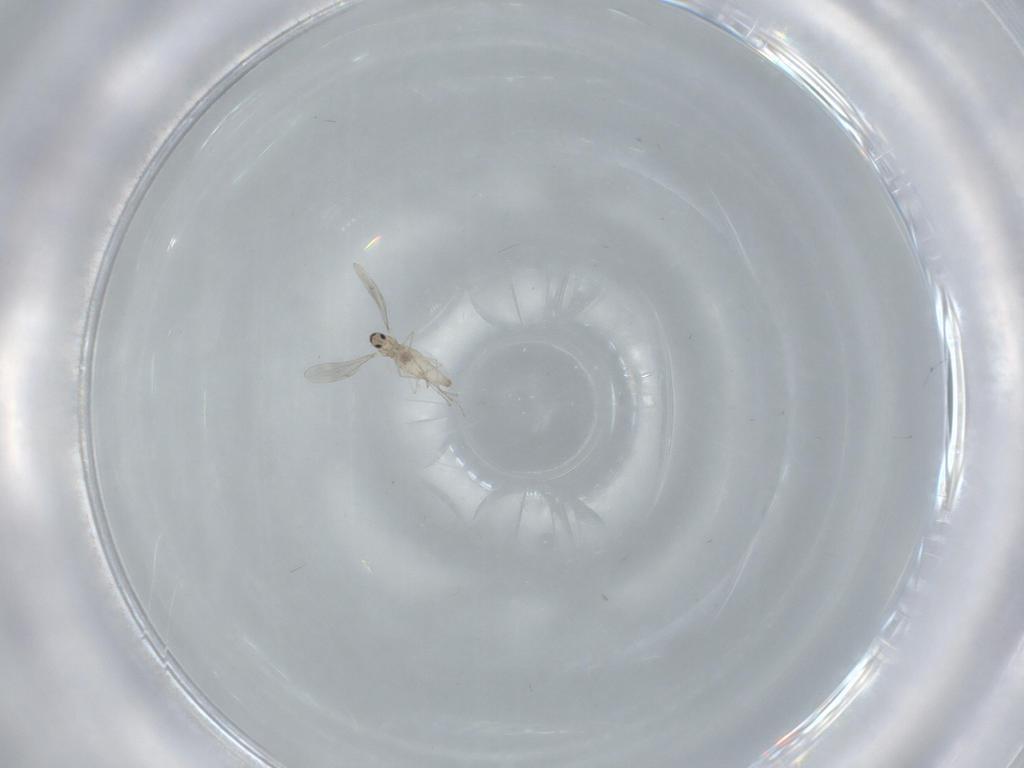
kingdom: Animalia
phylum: Arthropoda
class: Insecta
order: Diptera
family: Cecidomyiidae
